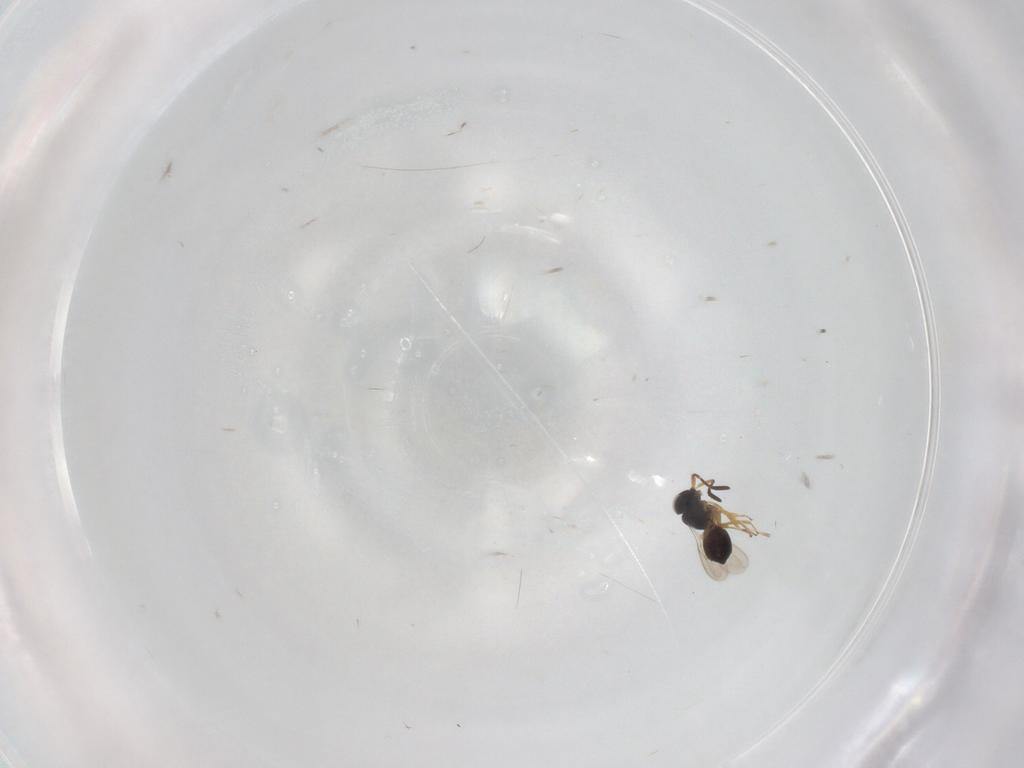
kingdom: Animalia
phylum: Arthropoda
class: Insecta
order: Hymenoptera
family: Scelionidae
